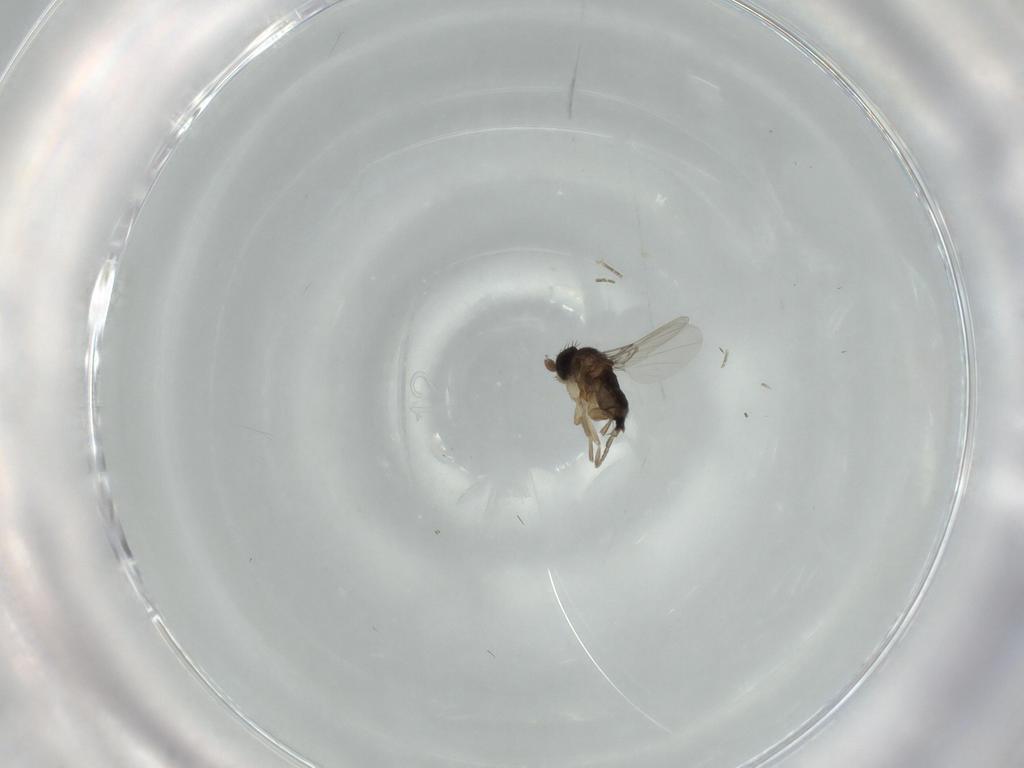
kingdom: Animalia
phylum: Arthropoda
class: Insecta
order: Diptera
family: Phoridae
